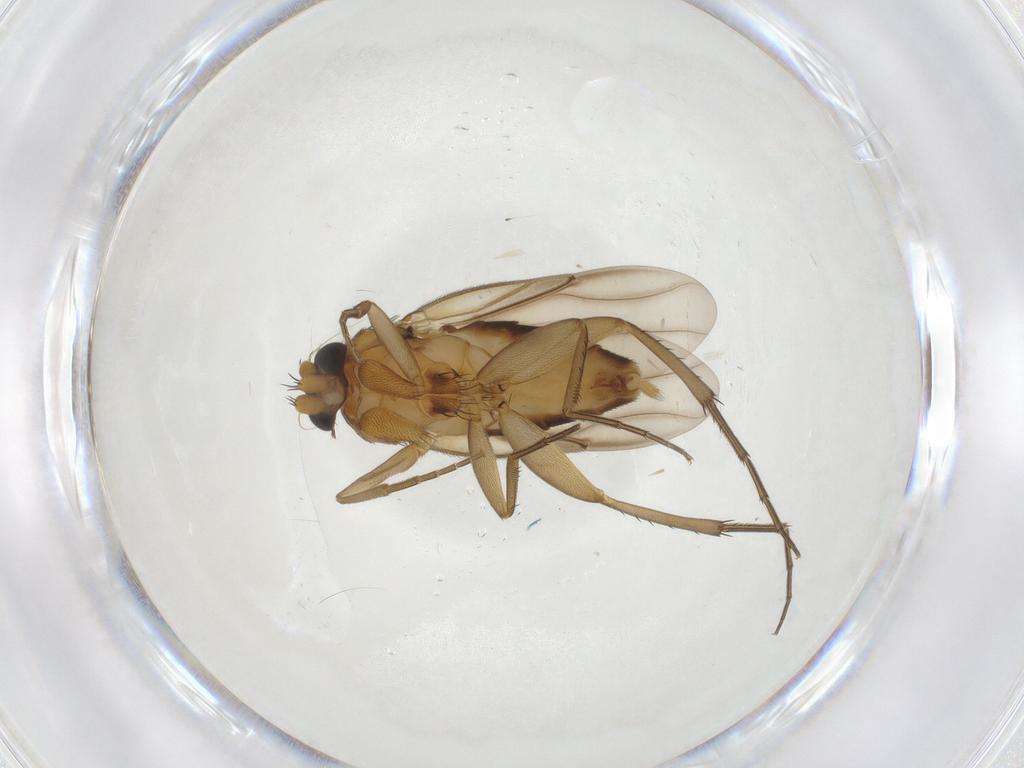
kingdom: Animalia
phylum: Arthropoda
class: Insecta
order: Diptera
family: Phoridae
